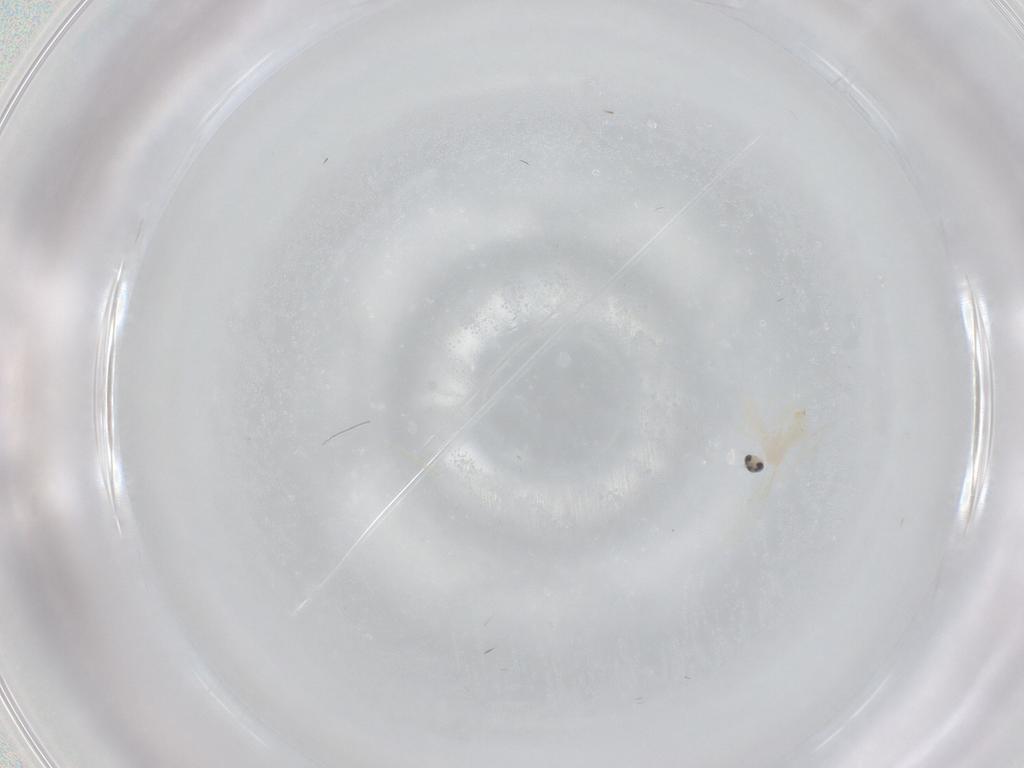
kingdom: Animalia
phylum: Arthropoda
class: Insecta
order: Diptera
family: Cecidomyiidae
